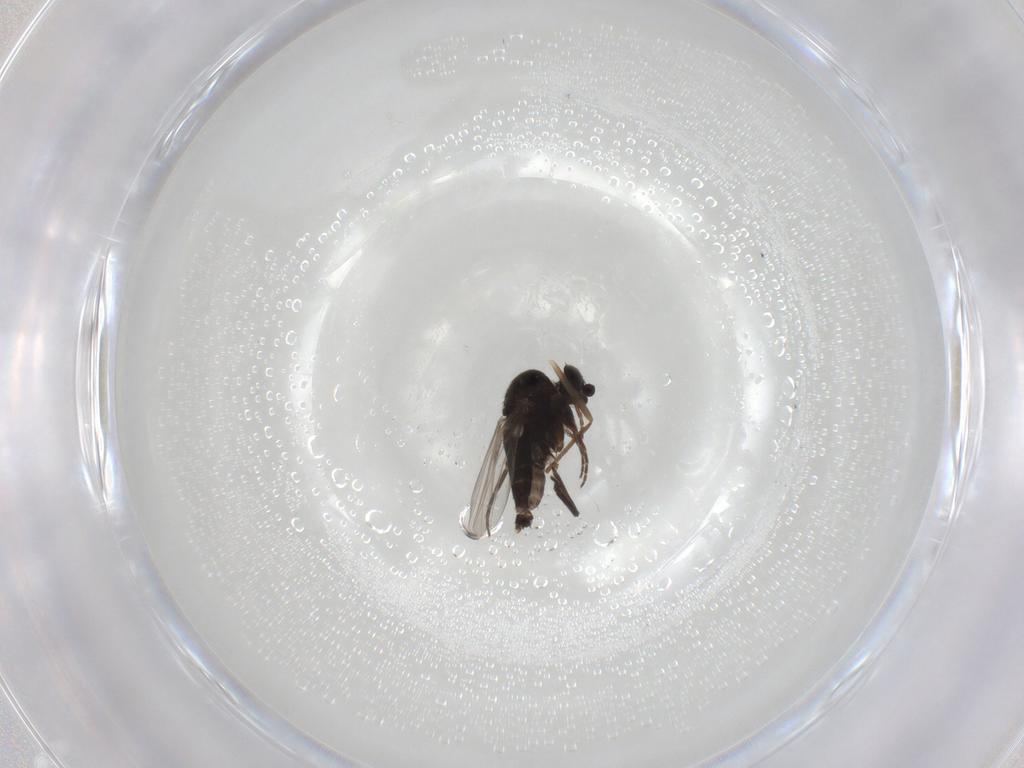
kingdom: Animalia
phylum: Arthropoda
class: Insecta
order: Diptera
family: Phoridae
